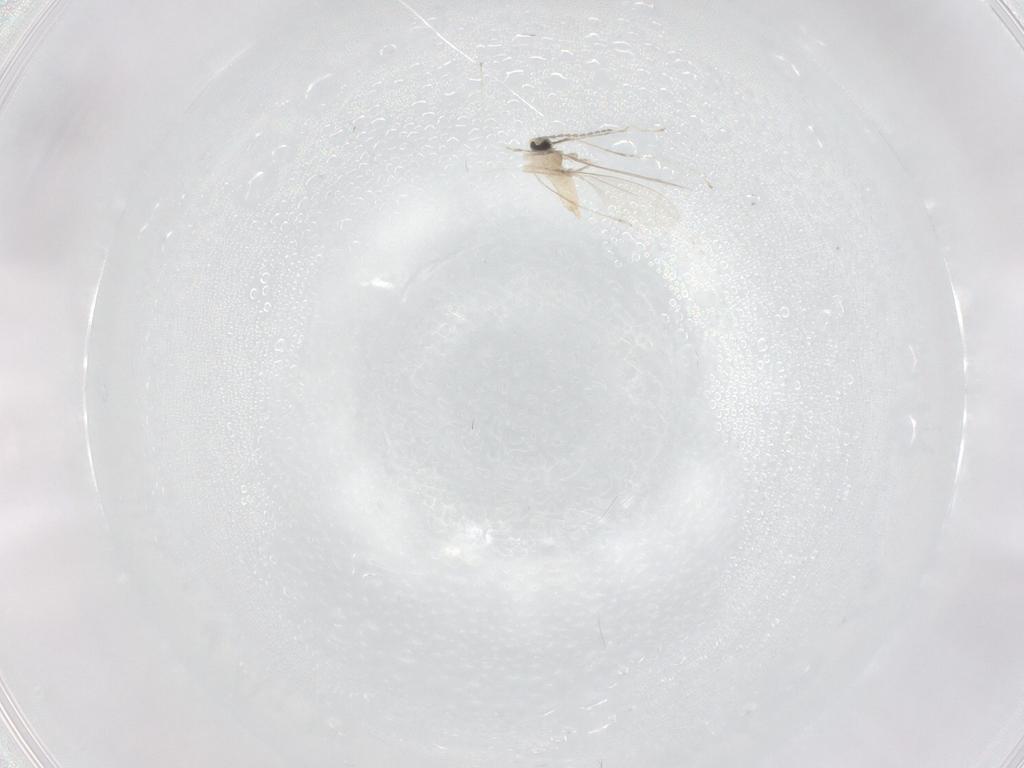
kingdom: Animalia
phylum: Arthropoda
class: Insecta
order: Diptera
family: Cecidomyiidae
